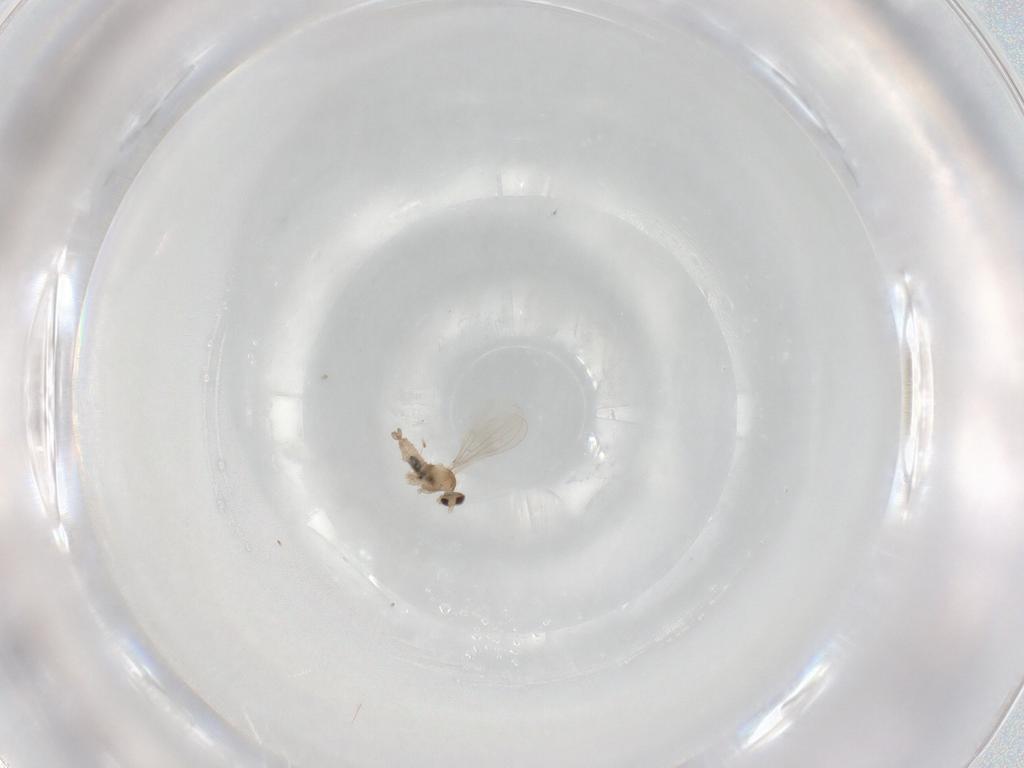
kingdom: Animalia
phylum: Arthropoda
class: Insecta
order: Diptera
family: Cecidomyiidae
